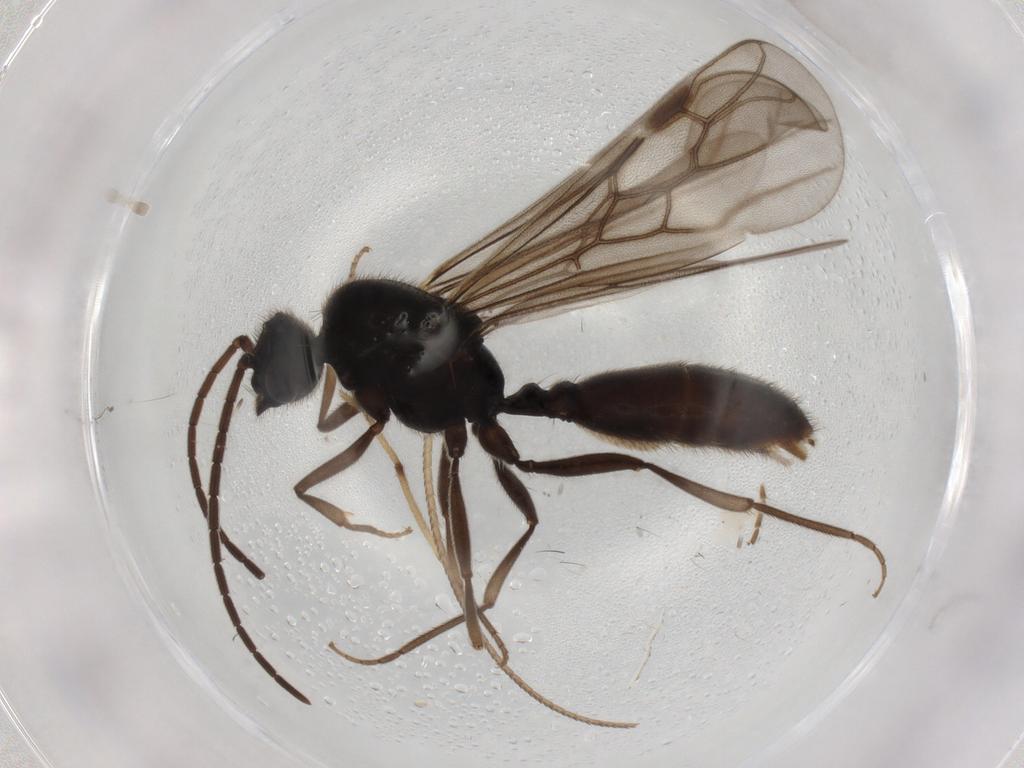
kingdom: Animalia
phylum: Arthropoda
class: Insecta
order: Hymenoptera
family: Formicidae
